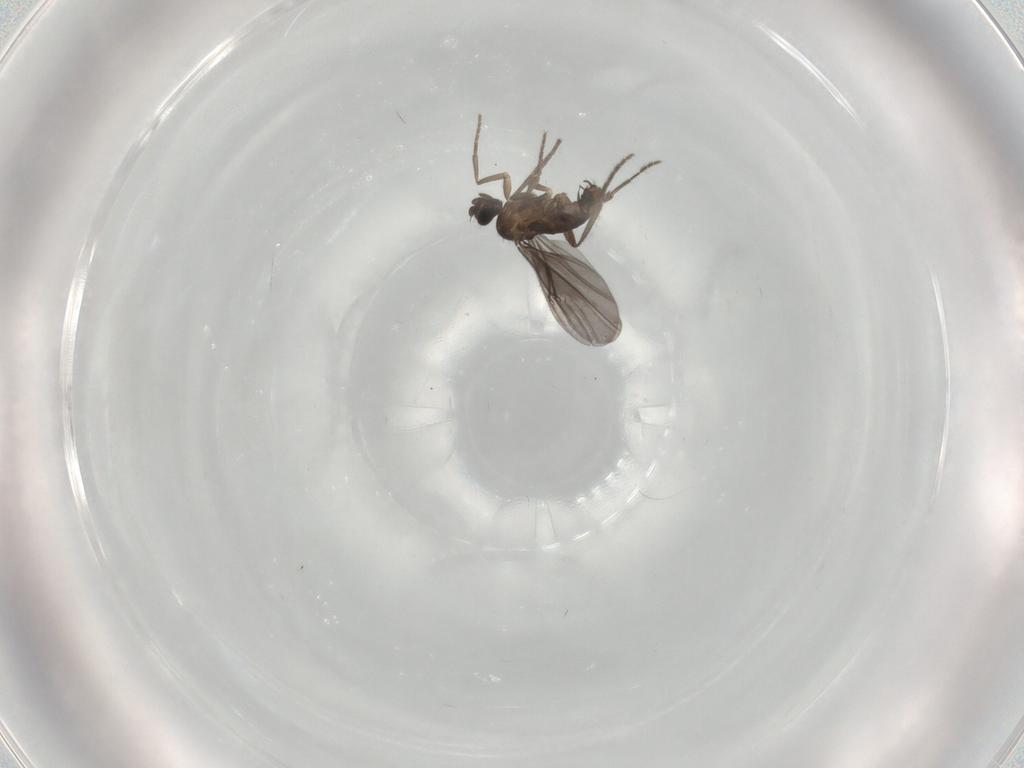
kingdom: Animalia
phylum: Arthropoda
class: Insecta
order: Diptera
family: Phoridae
